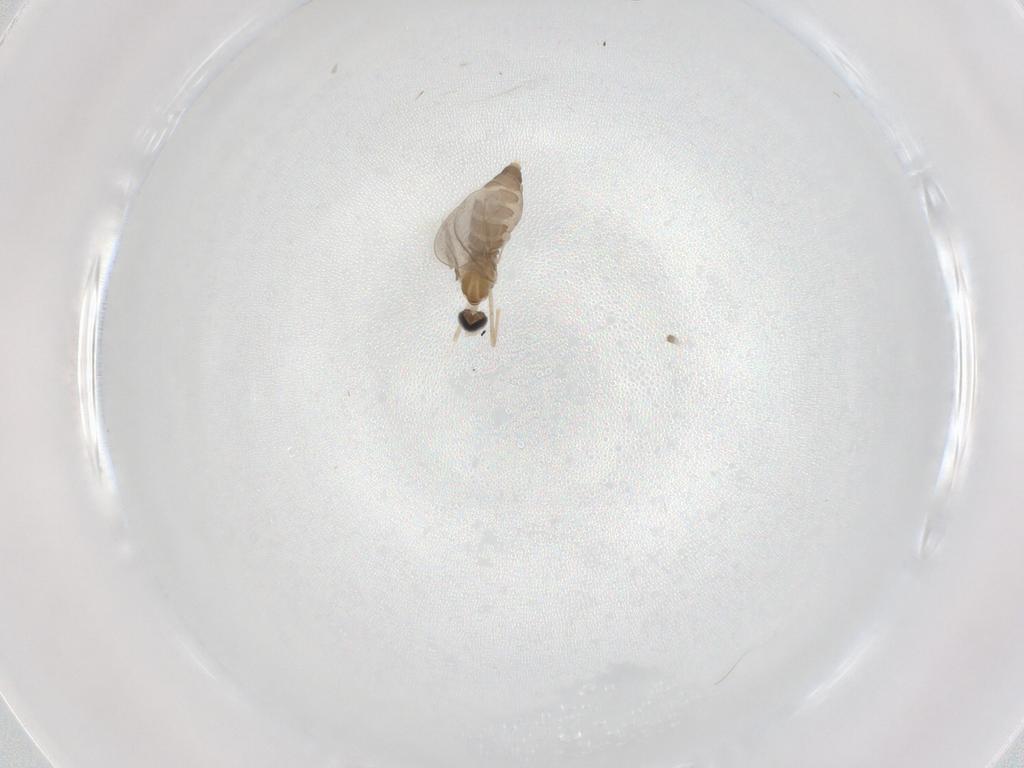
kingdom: Animalia
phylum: Arthropoda
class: Insecta
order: Diptera
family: Cecidomyiidae
